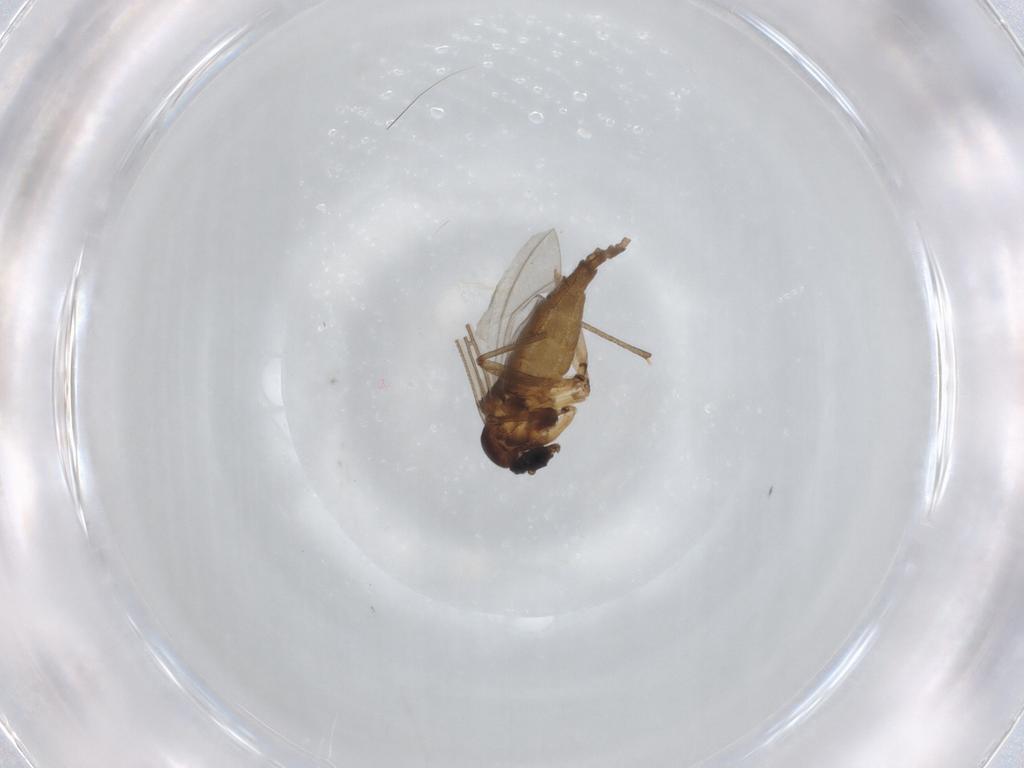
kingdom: Animalia
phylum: Arthropoda
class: Insecta
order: Diptera
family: Sciaridae
